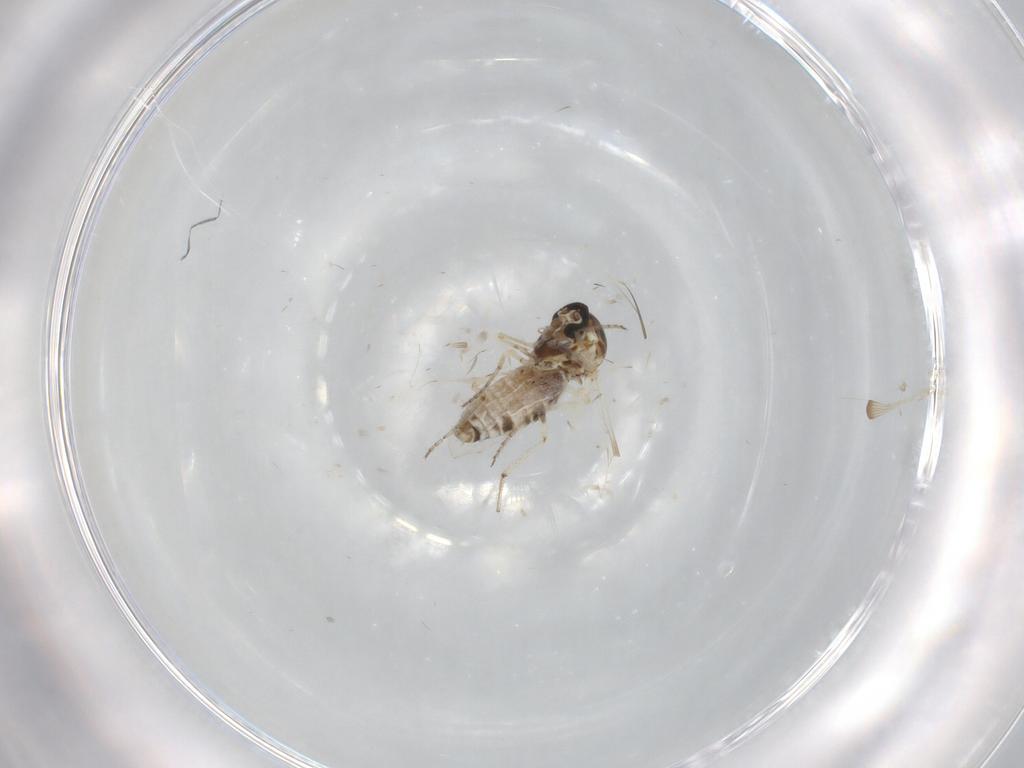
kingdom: Animalia
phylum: Arthropoda
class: Insecta
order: Diptera
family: Ceratopogonidae
